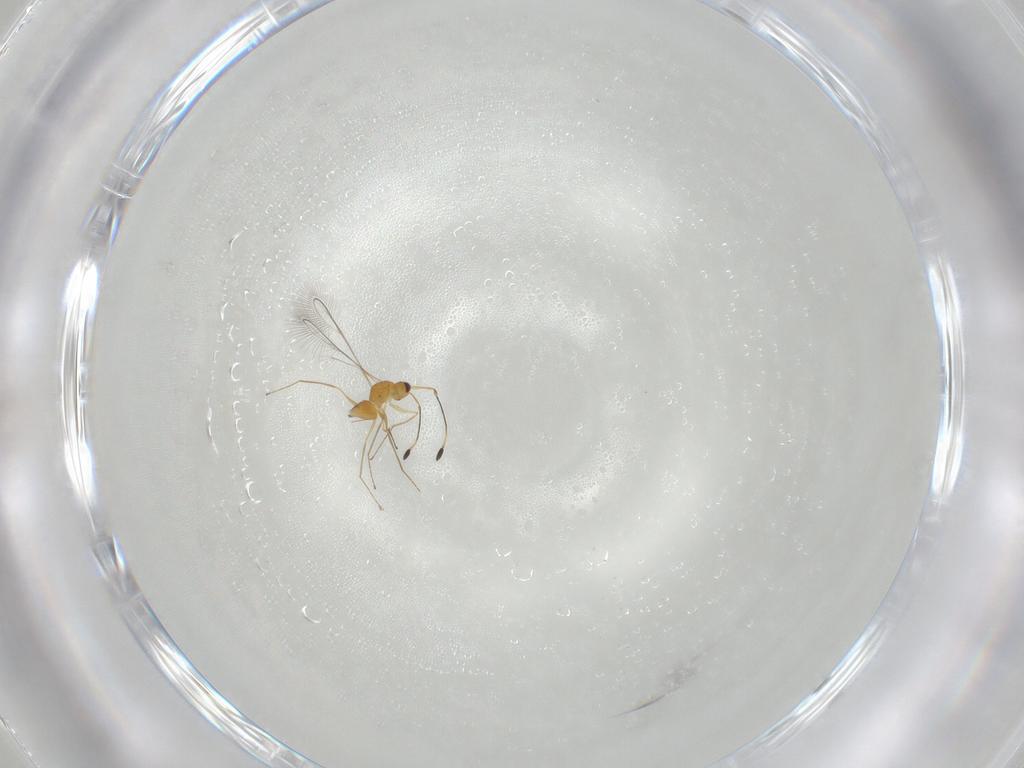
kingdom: Animalia
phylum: Arthropoda
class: Insecta
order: Hymenoptera
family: Mymaridae
